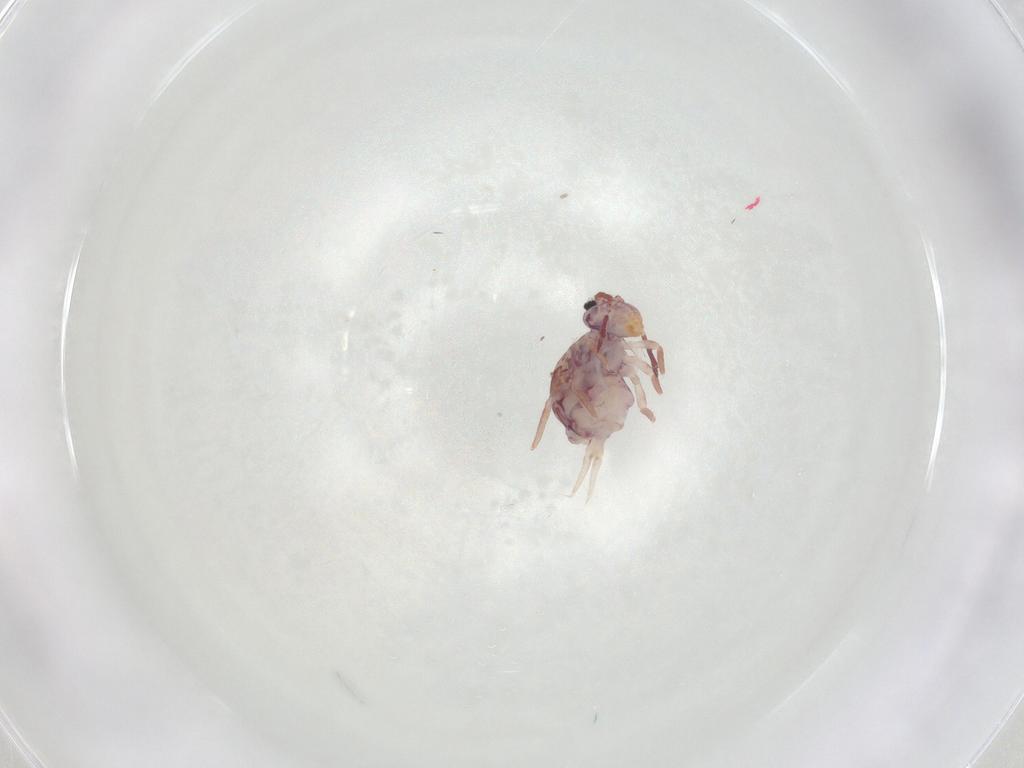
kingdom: Animalia
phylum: Arthropoda
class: Collembola
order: Symphypleona
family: Dicyrtomidae
